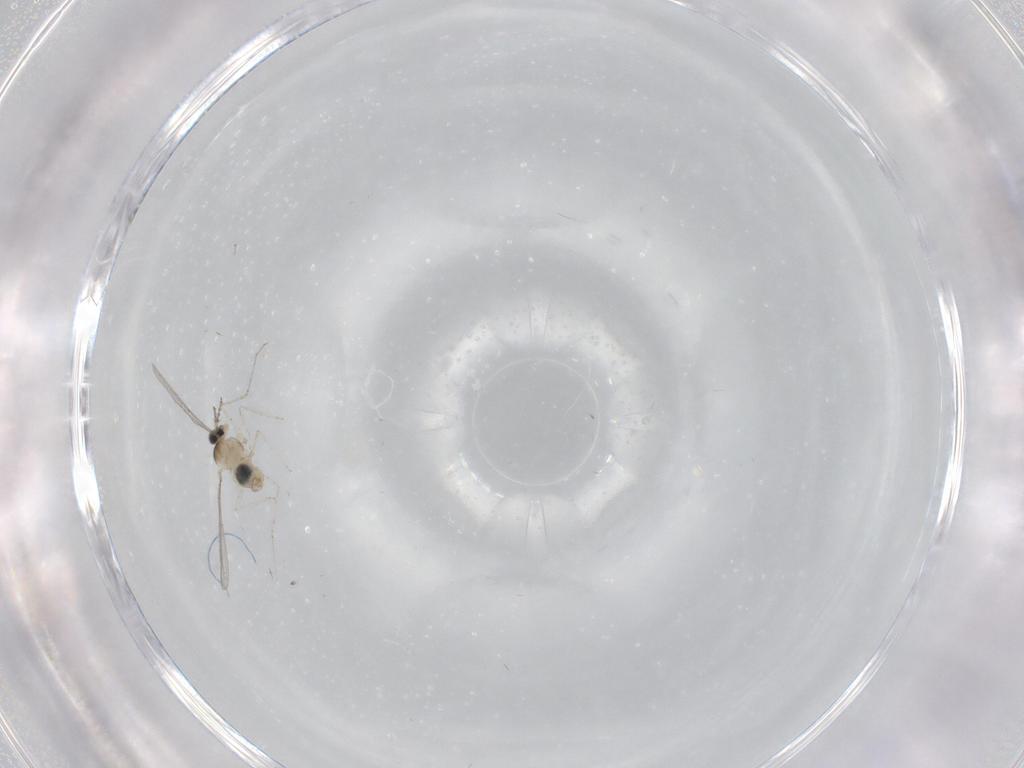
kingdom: Animalia
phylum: Arthropoda
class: Insecta
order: Diptera
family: Cecidomyiidae
